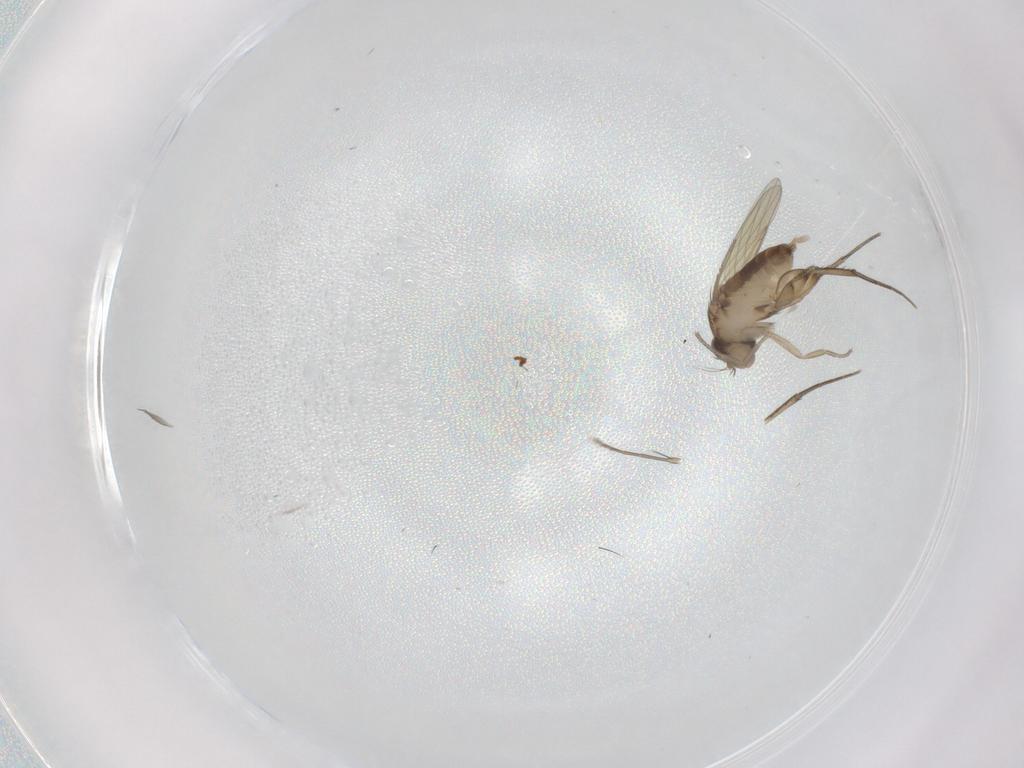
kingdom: Animalia
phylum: Arthropoda
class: Insecta
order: Diptera
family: Phoridae
